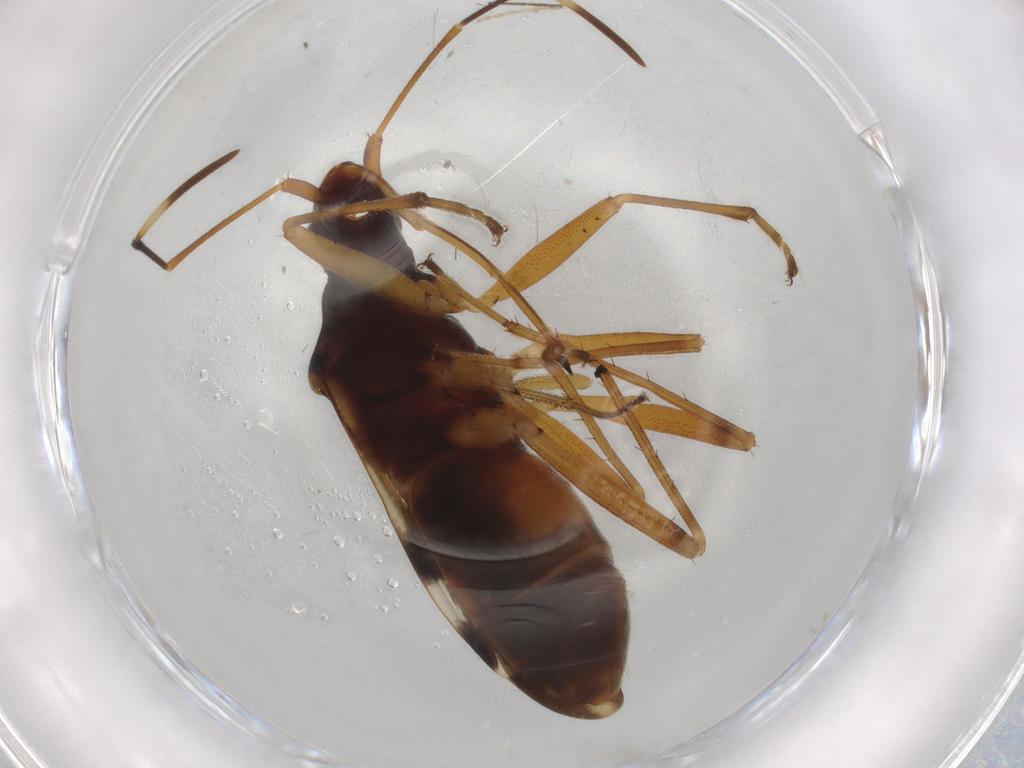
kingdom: Animalia
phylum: Arthropoda
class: Insecta
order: Hemiptera
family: Rhyparochromidae
